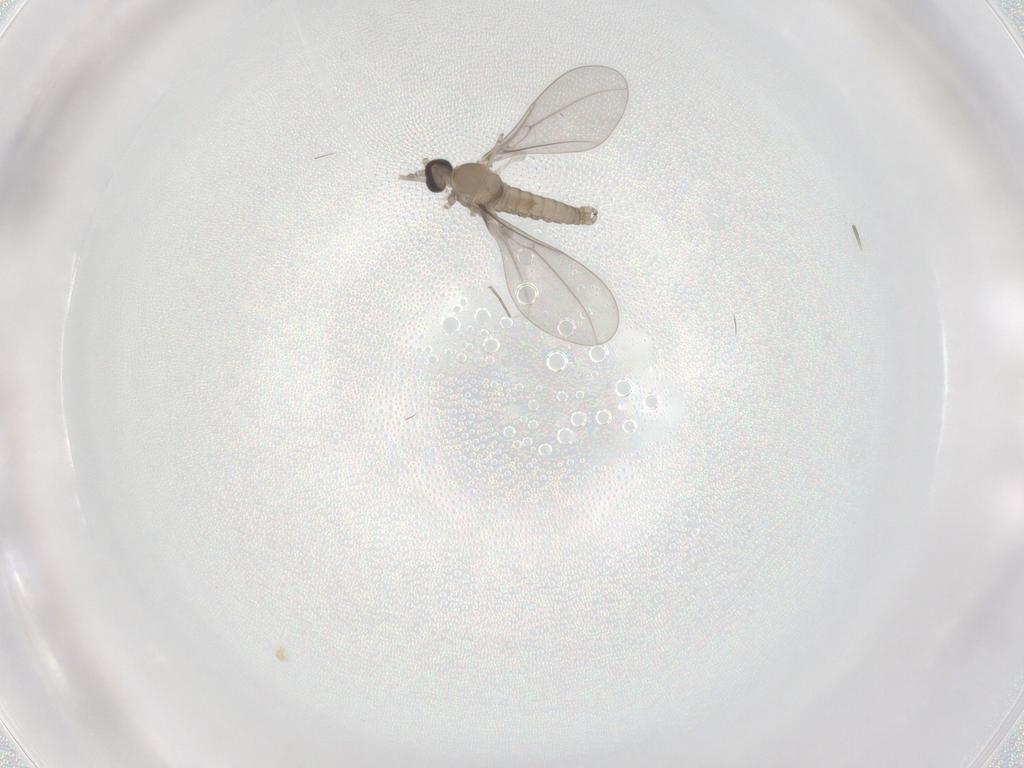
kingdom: Animalia
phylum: Arthropoda
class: Insecta
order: Diptera
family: Cecidomyiidae
